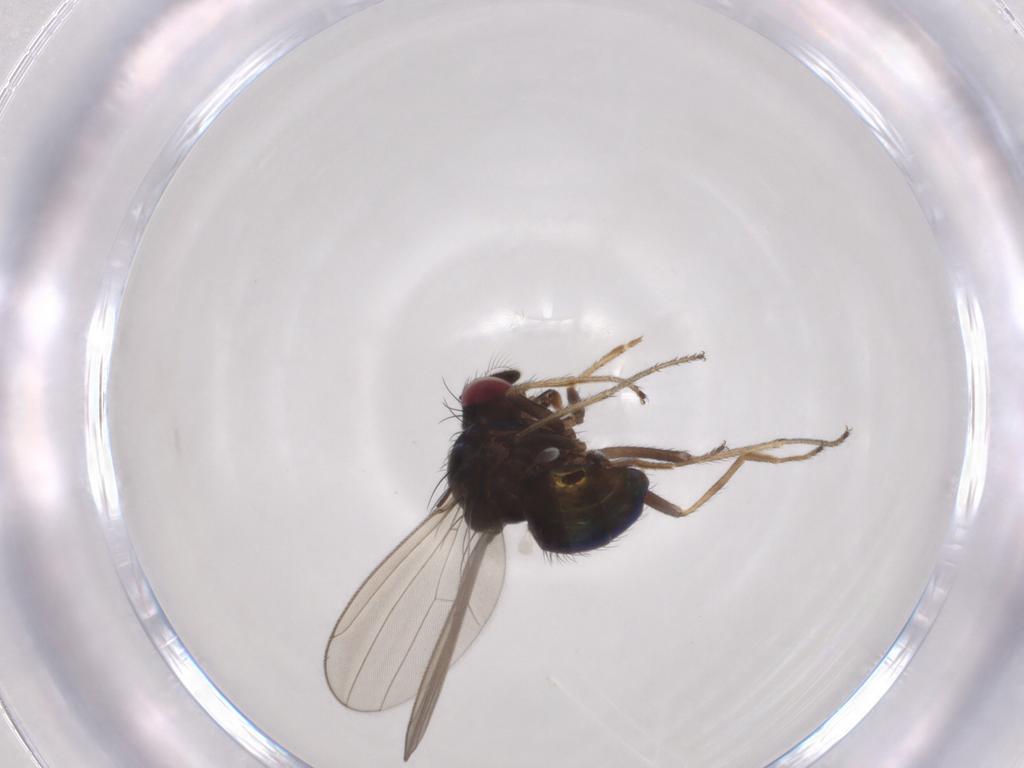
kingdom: Animalia
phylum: Arthropoda
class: Insecta
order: Diptera
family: Ephydridae
